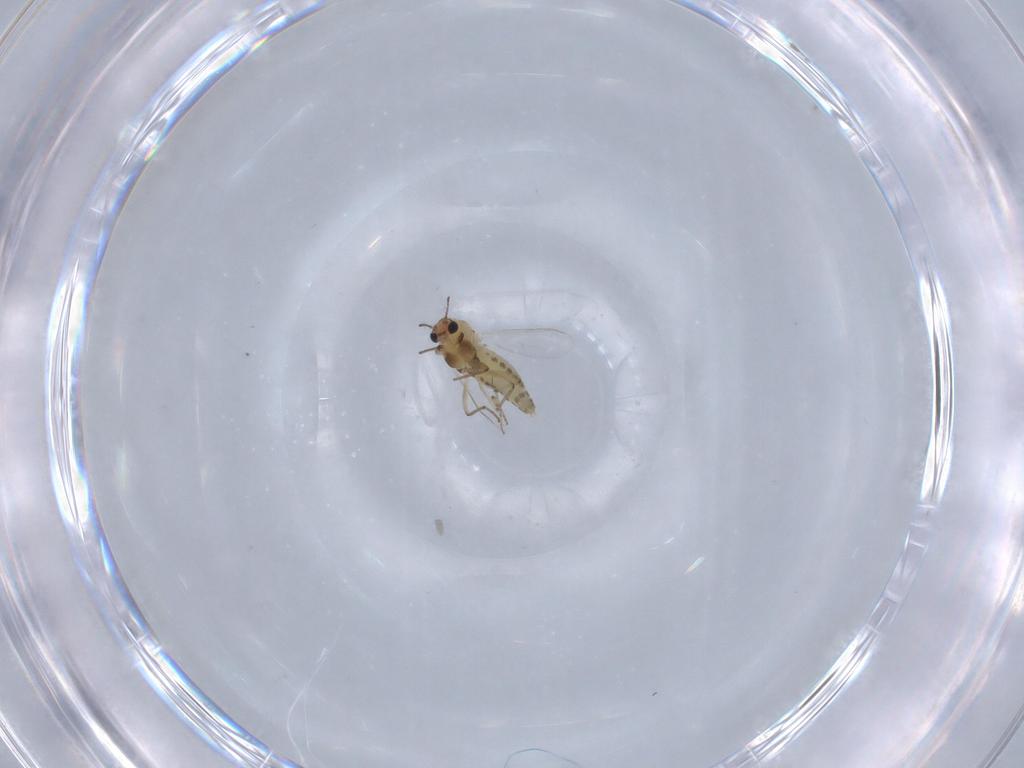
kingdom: Animalia
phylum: Arthropoda
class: Insecta
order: Diptera
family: Chironomidae
